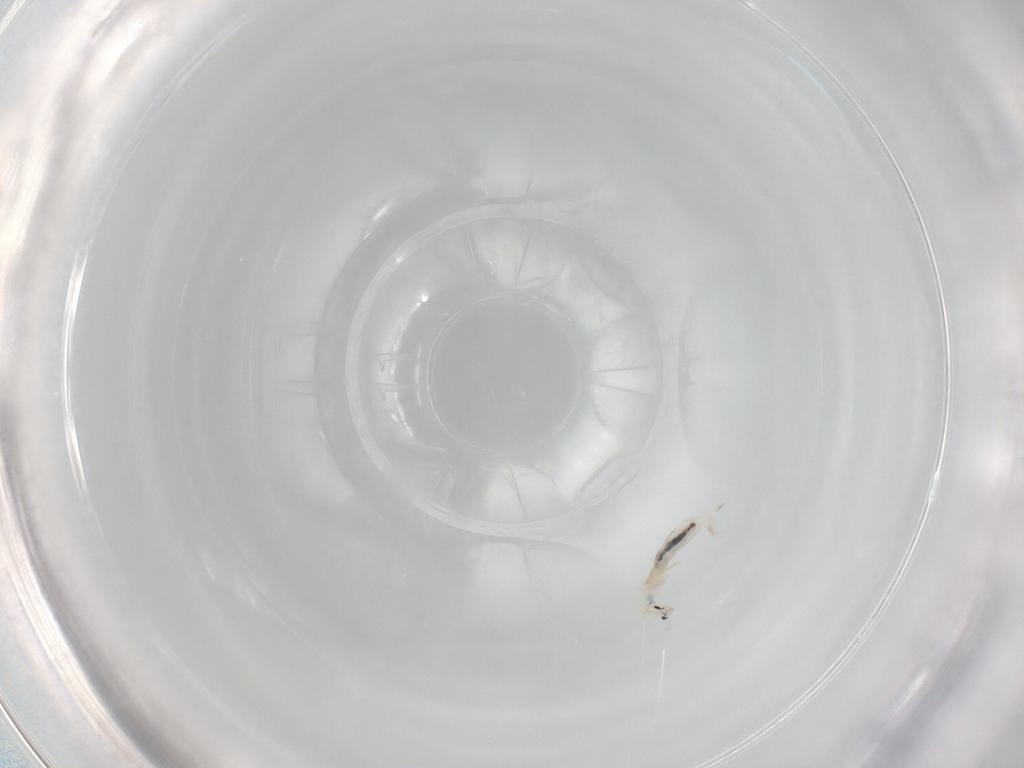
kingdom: Animalia
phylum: Arthropoda
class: Collembola
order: Entomobryomorpha
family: Entomobryidae
